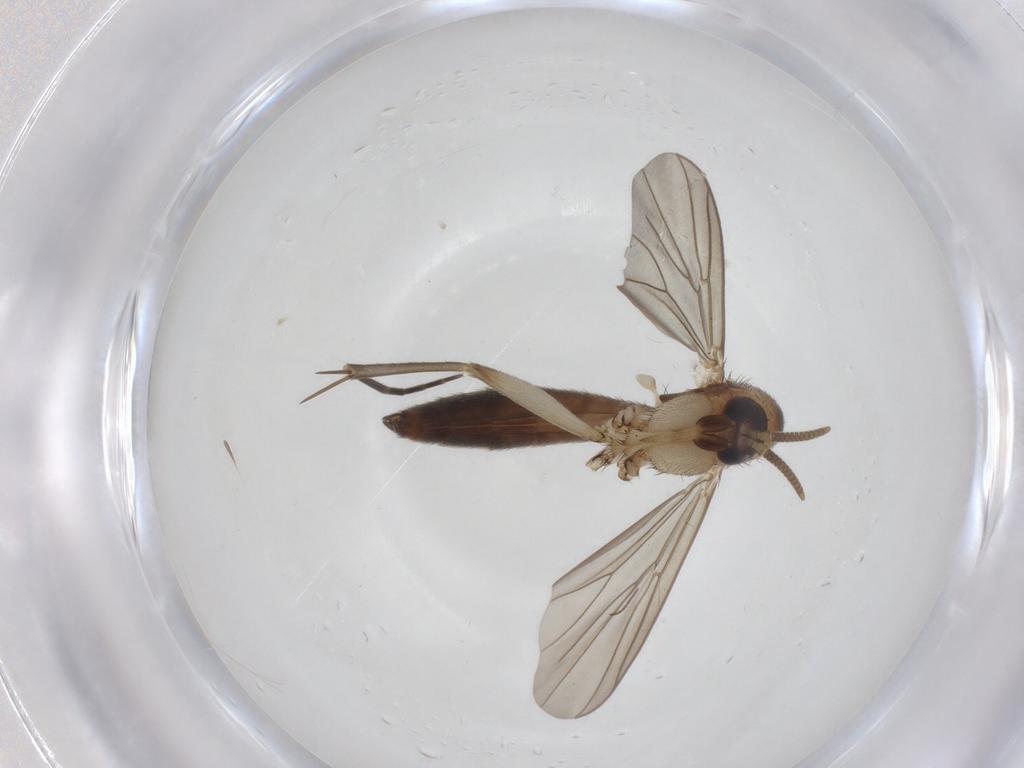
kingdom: Animalia
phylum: Arthropoda
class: Insecta
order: Diptera
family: Mycetophilidae
